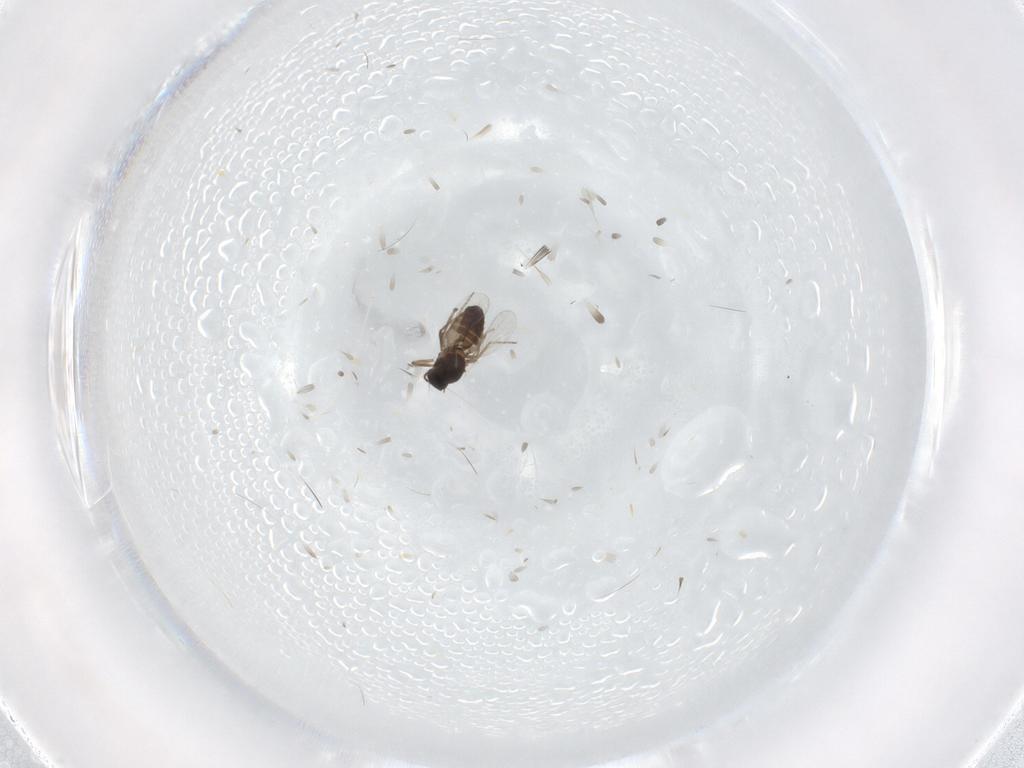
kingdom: Animalia
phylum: Arthropoda
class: Insecta
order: Diptera
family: Ceratopogonidae
